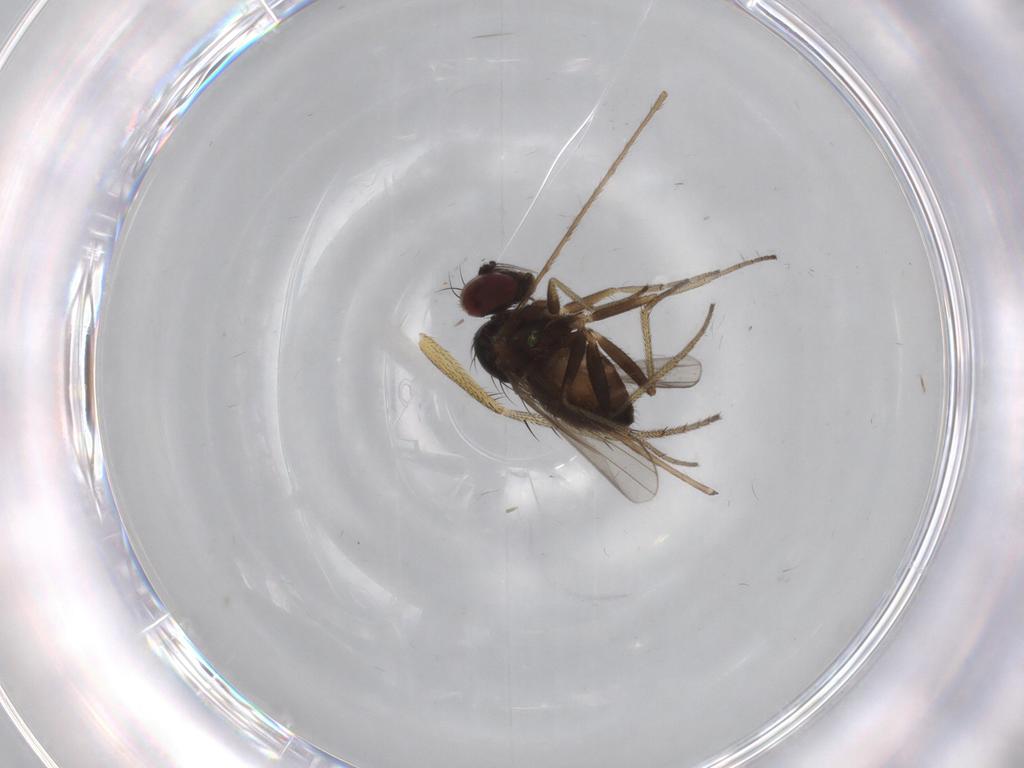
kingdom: Animalia
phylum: Arthropoda
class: Insecta
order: Diptera
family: Limoniidae
